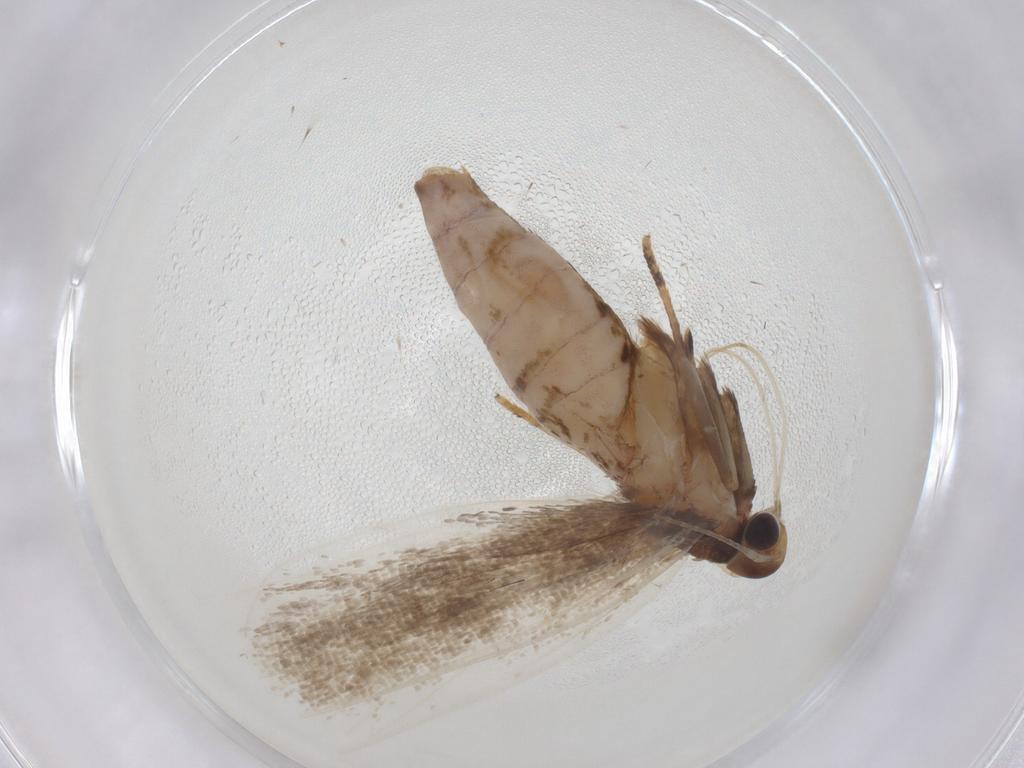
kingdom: Animalia
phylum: Arthropoda
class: Insecta
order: Lepidoptera
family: Gelechiidae
